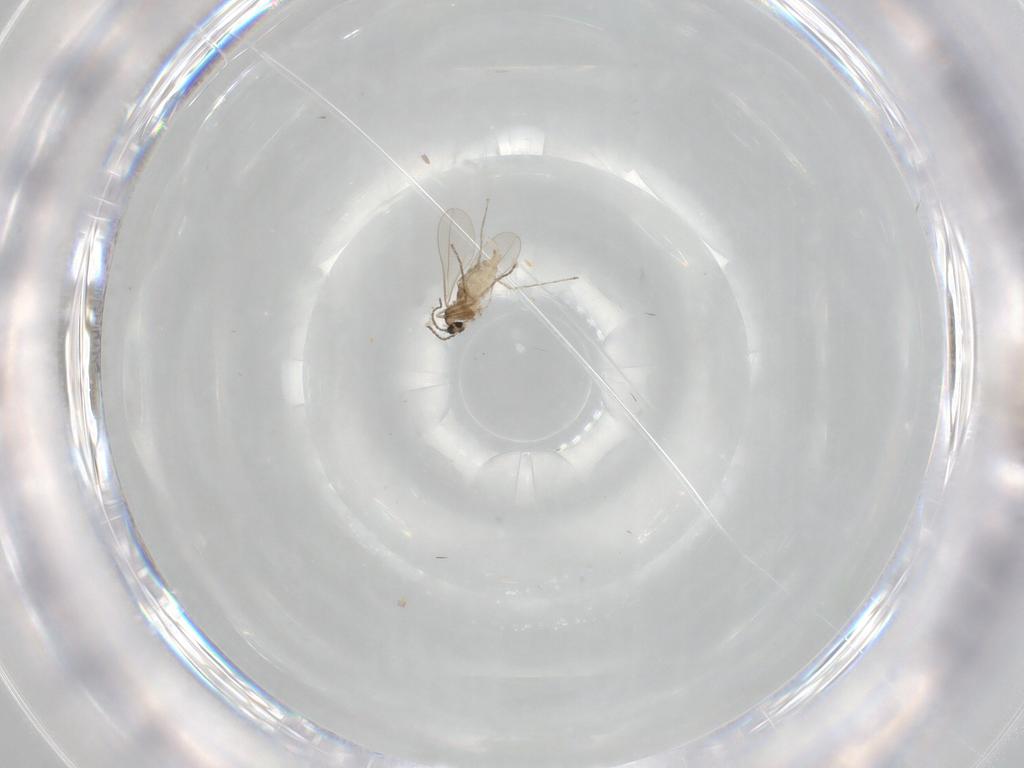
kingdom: Animalia
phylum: Arthropoda
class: Insecta
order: Diptera
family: Cecidomyiidae
